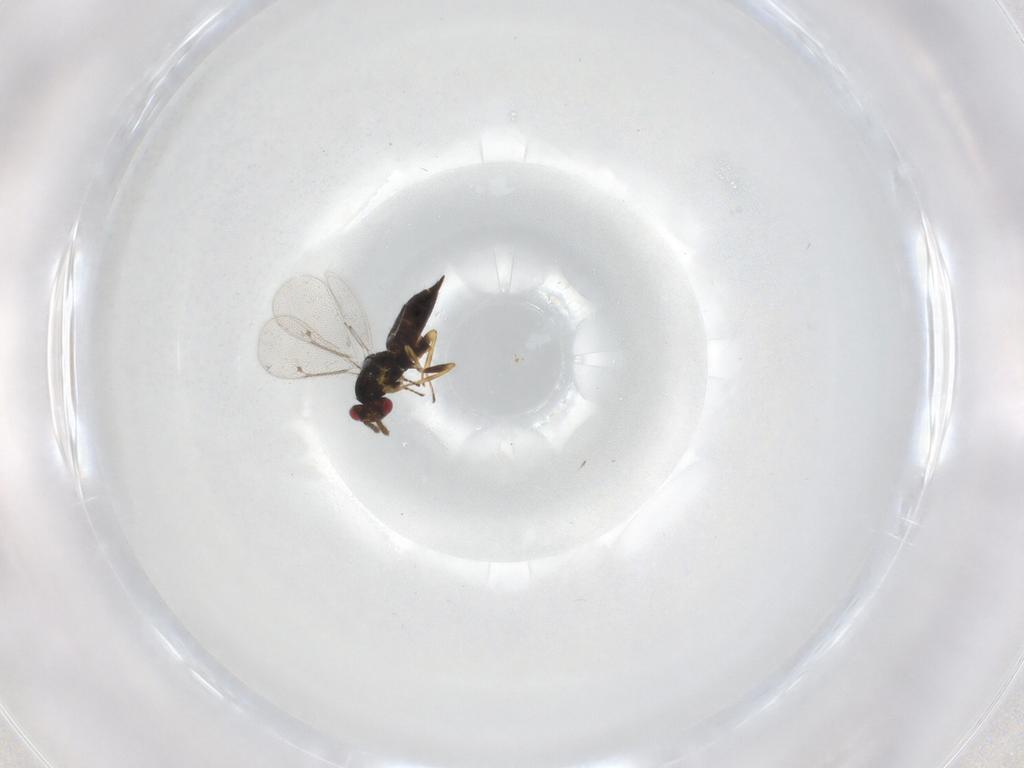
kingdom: Animalia
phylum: Arthropoda
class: Insecta
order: Hymenoptera
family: Eulophidae
